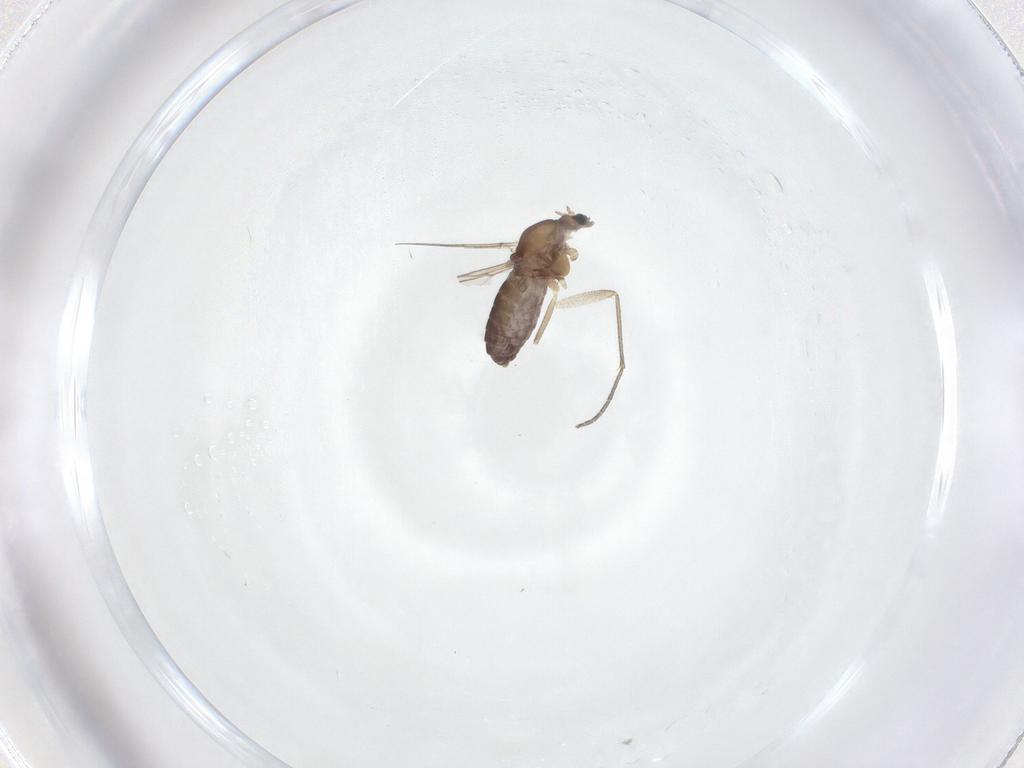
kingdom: Animalia
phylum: Arthropoda
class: Insecta
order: Diptera
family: Chironomidae
